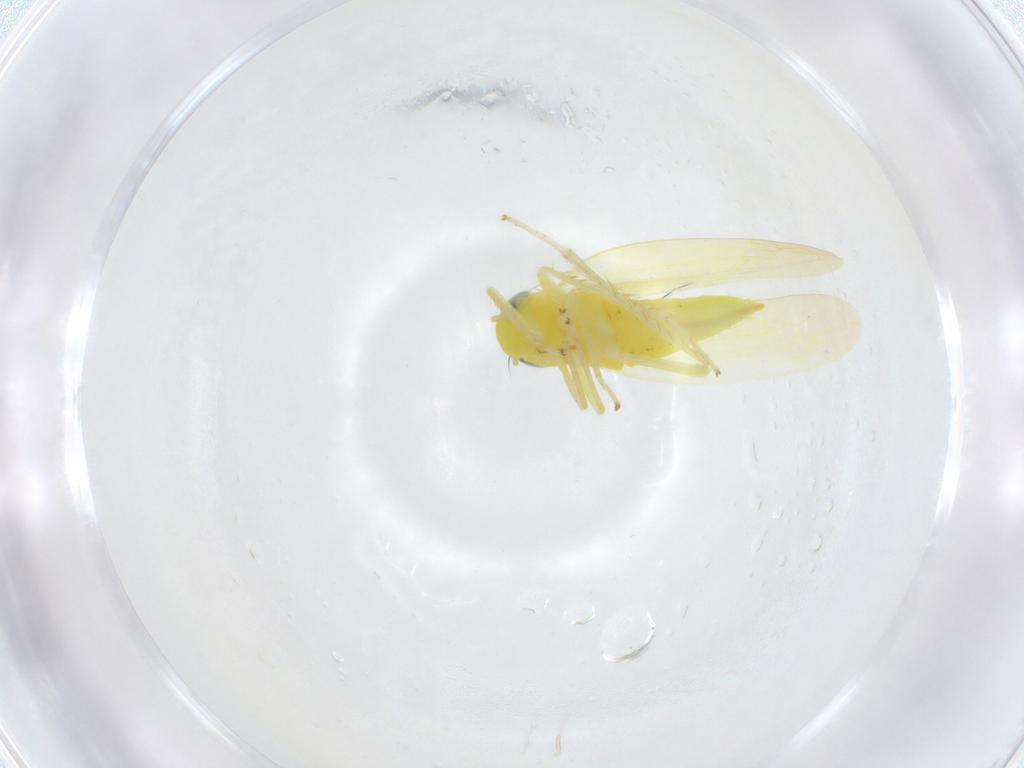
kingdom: Animalia
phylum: Arthropoda
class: Insecta
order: Hemiptera
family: Cicadellidae
